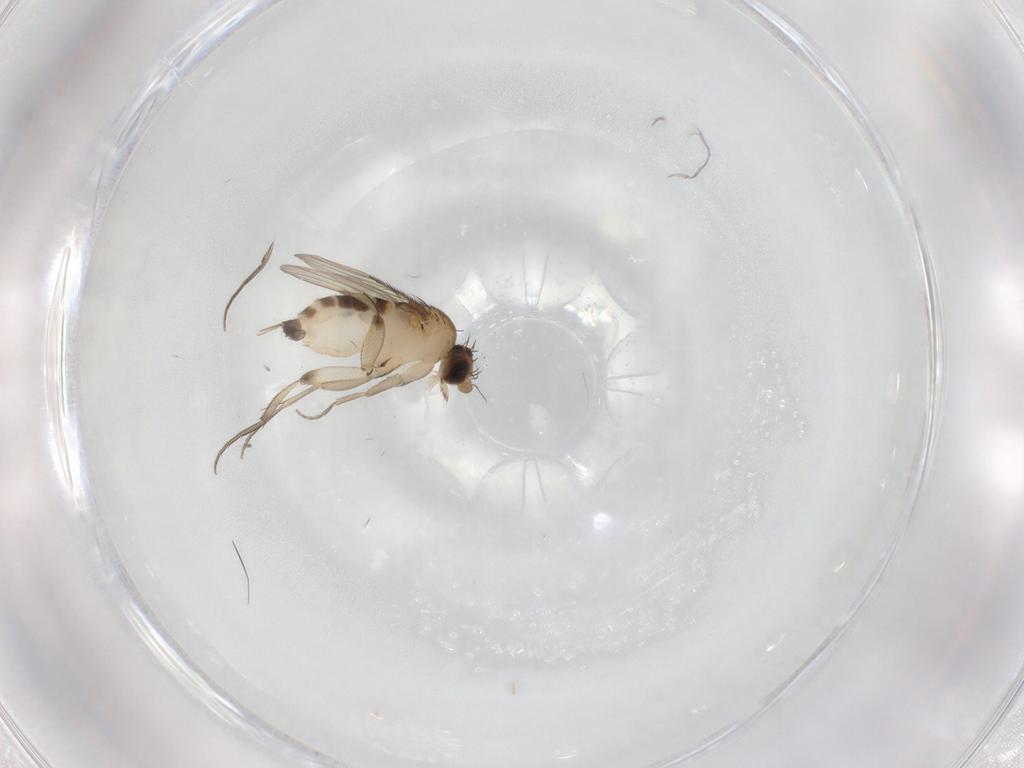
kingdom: Animalia
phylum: Arthropoda
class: Insecta
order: Diptera
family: Phoridae
